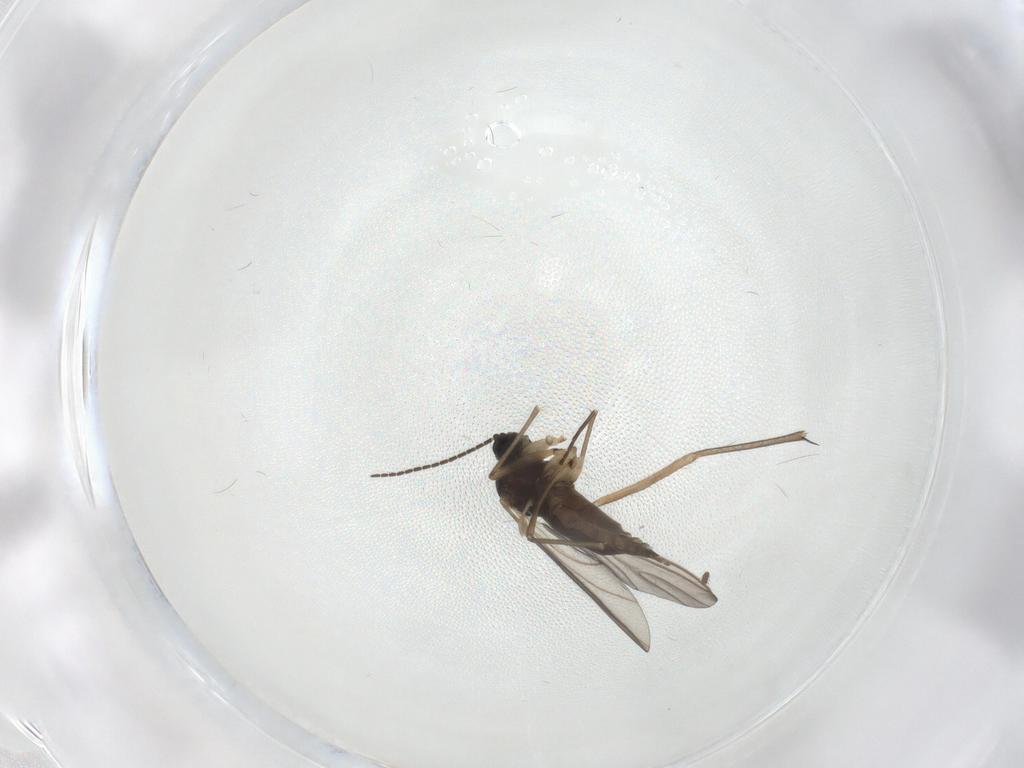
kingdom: Animalia
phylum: Arthropoda
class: Insecta
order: Diptera
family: Sciaridae
